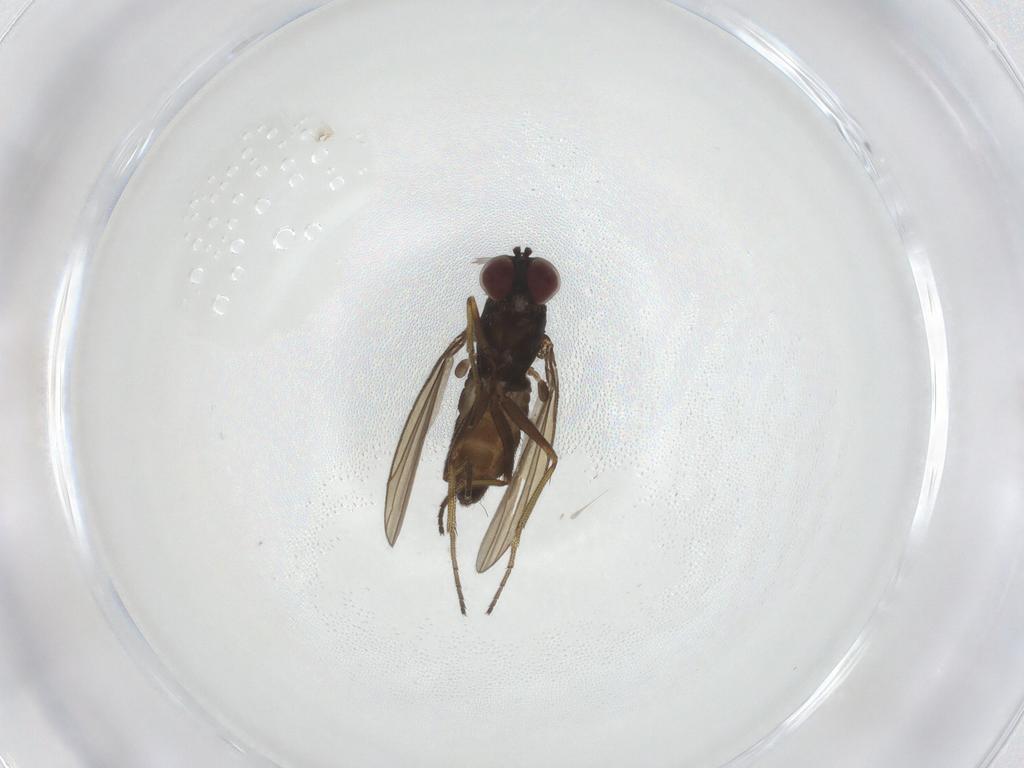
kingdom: Animalia
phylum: Arthropoda
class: Insecta
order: Diptera
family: Dolichopodidae
